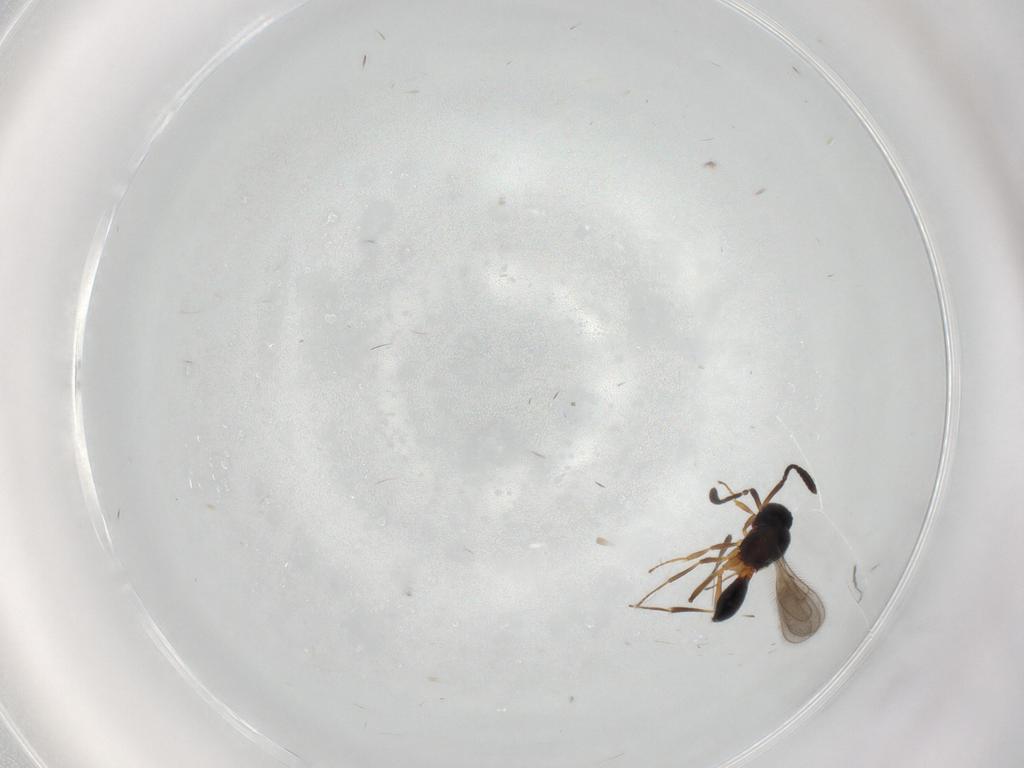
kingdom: Animalia
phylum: Arthropoda
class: Insecta
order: Hymenoptera
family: Scelionidae
